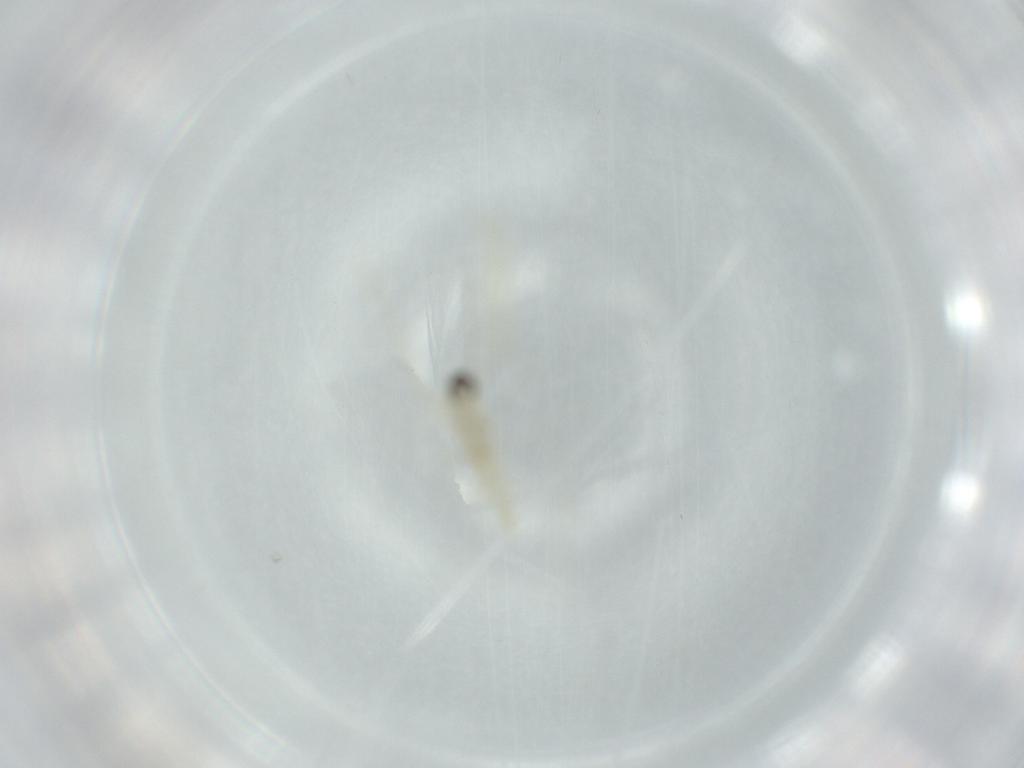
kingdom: Animalia
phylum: Arthropoda
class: Insecta
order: Diptera
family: Cecidomyiidae
